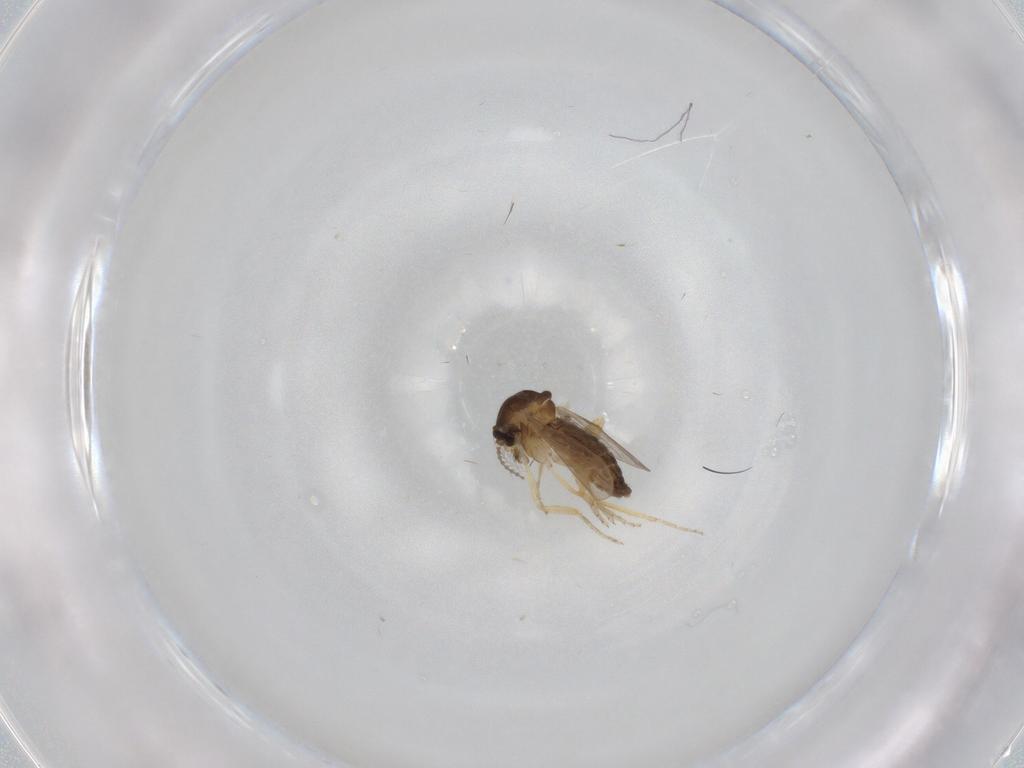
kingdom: Animalia
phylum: Arthropoda
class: Insecta
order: Diptera
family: Ceratopogonidae
